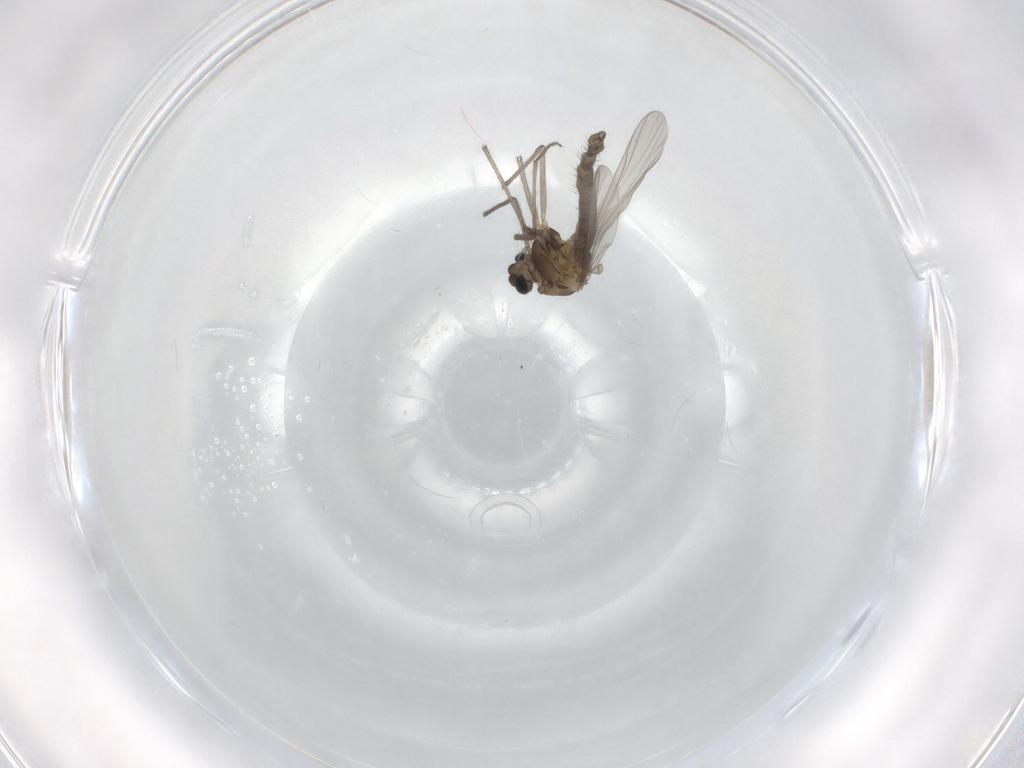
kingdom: Animalia
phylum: Arthropoda
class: Insecta
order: Diptera
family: Chironomidae
